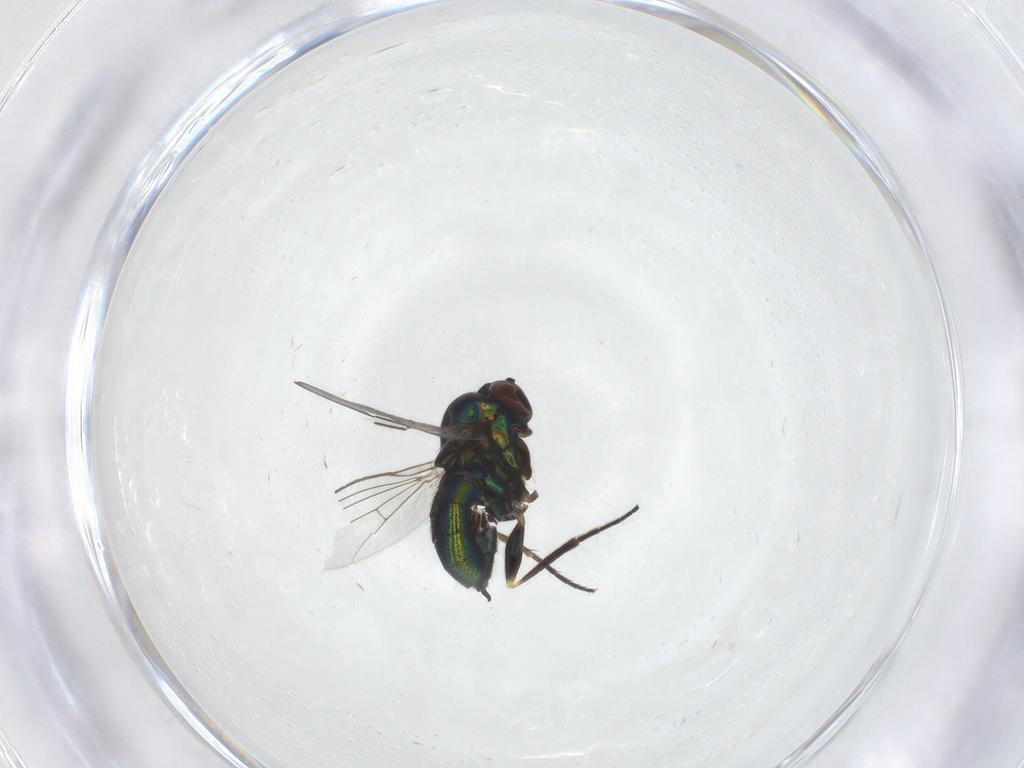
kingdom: Animalia
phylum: Arthropoda
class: Insecta
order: Diptera
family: Dolichopodidae
